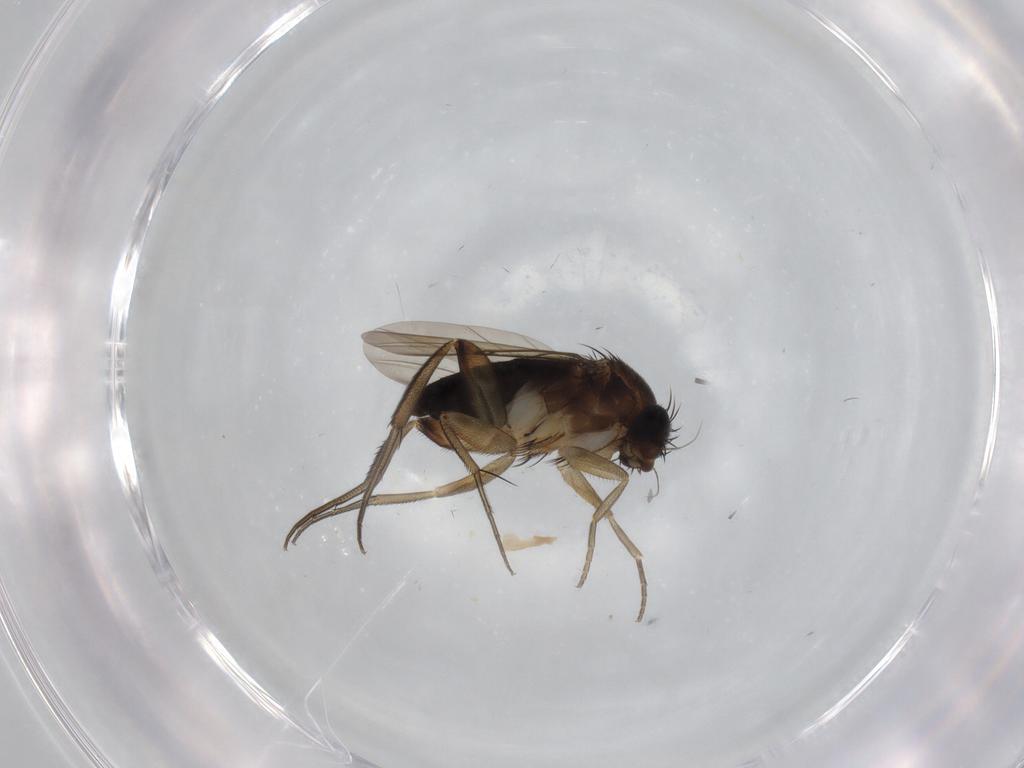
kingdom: Animalia
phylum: Arthropoda
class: Insecta
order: Diptera
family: Phoridae
